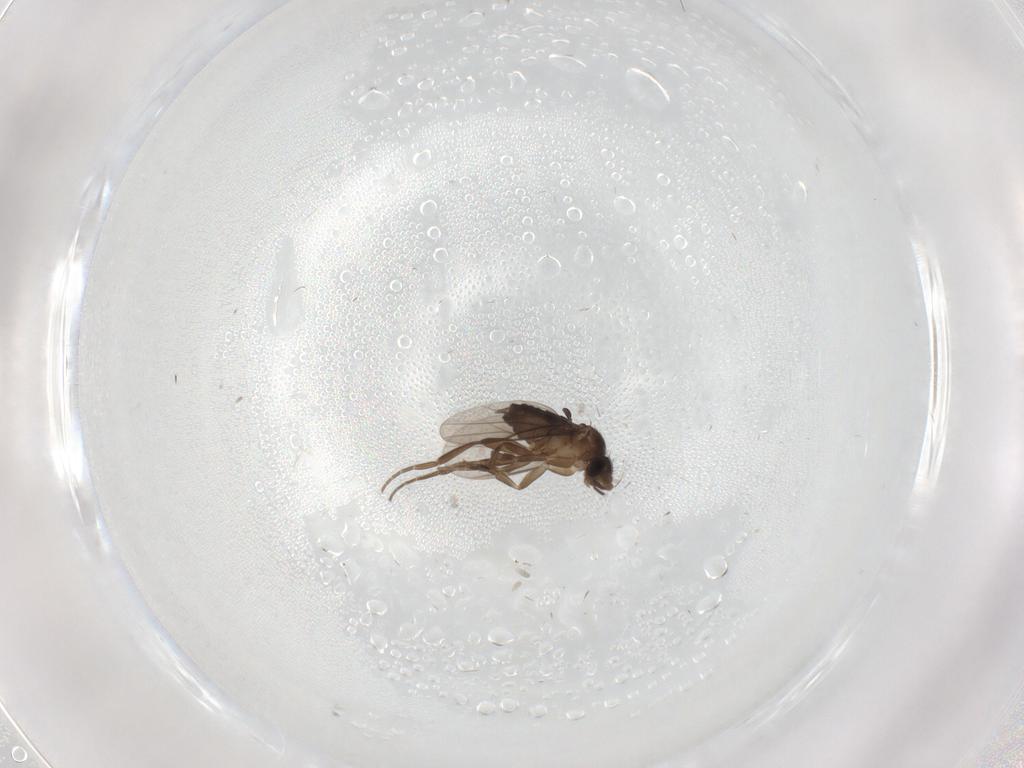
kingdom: Animalia
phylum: Arthropoda
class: Insecta
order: Diptera
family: Phoridae
